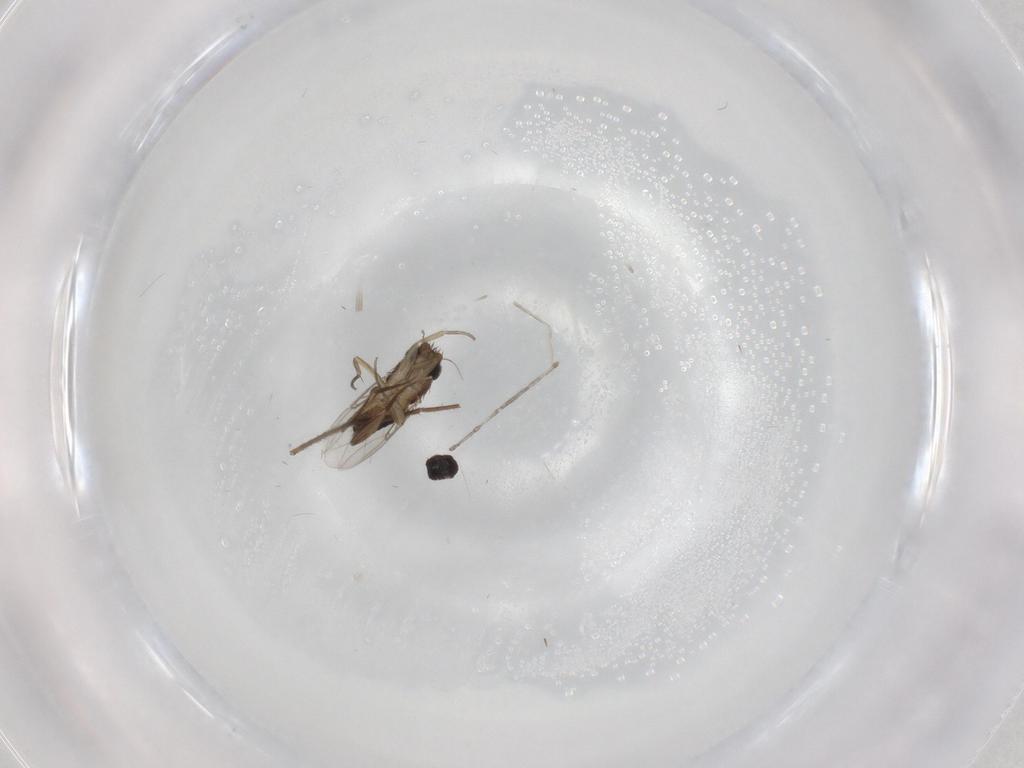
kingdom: Animalia
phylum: Arthropoda
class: Insecta
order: Diptera
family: Phoridae
